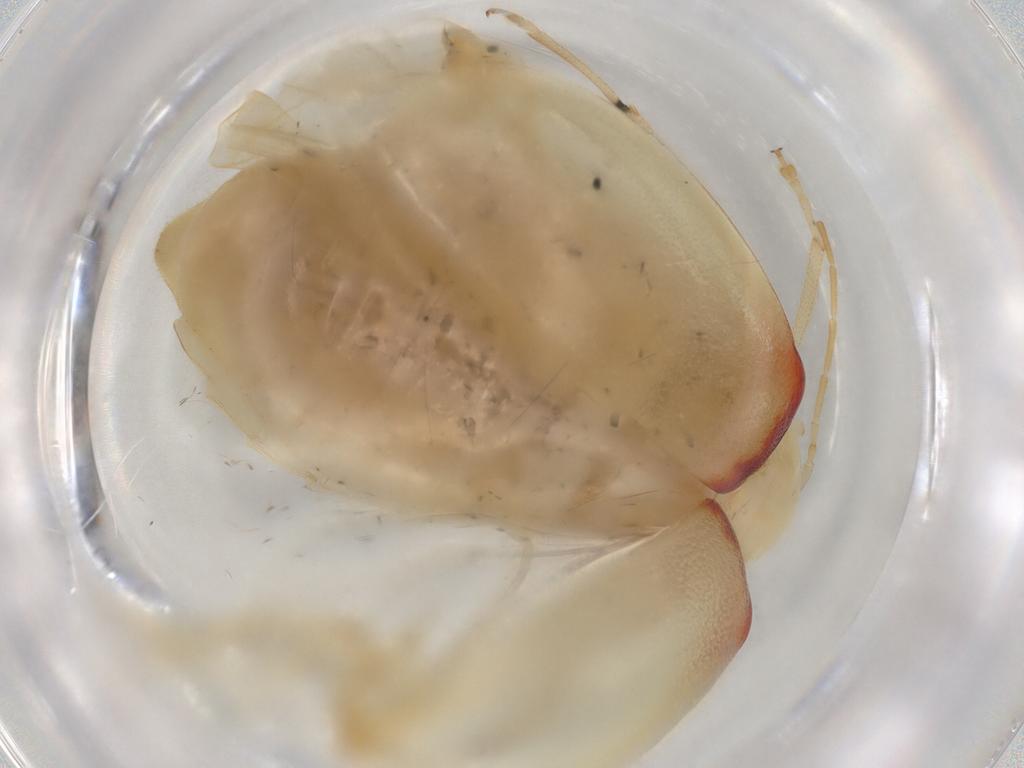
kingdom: Animalia
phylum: Arthropoda
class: Insecta
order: Coleoptera
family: Chrysomelidae
